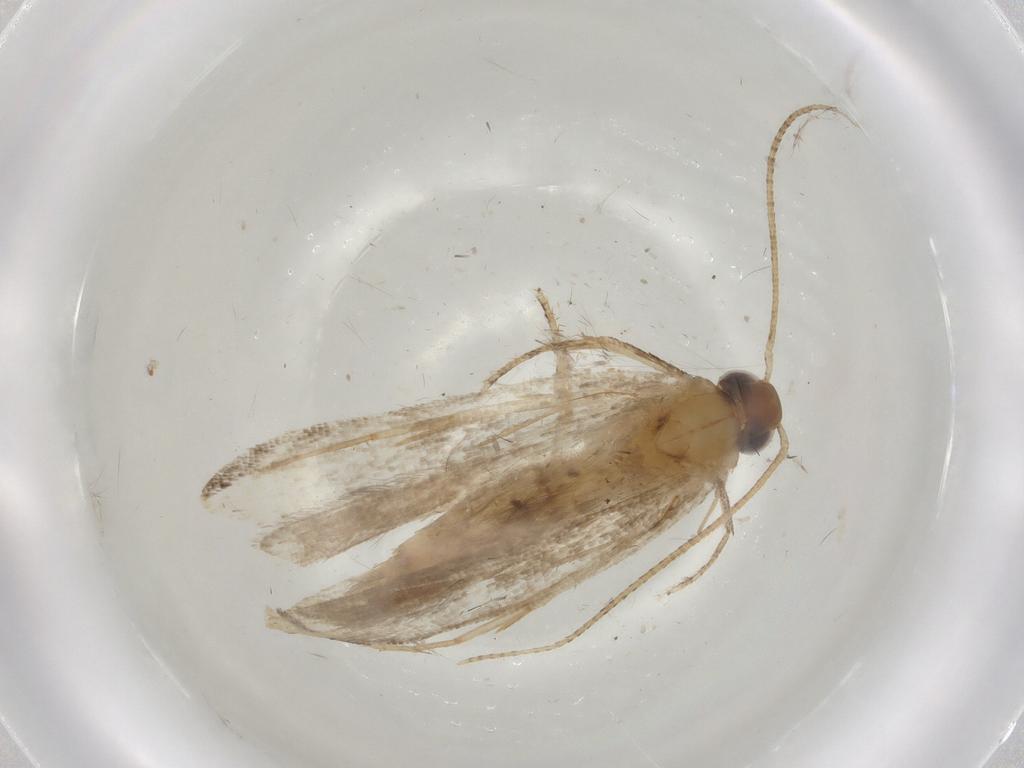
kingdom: Animalia
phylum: Arthropoda
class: Insecta
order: Lepidoptera
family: Gelechiidae
